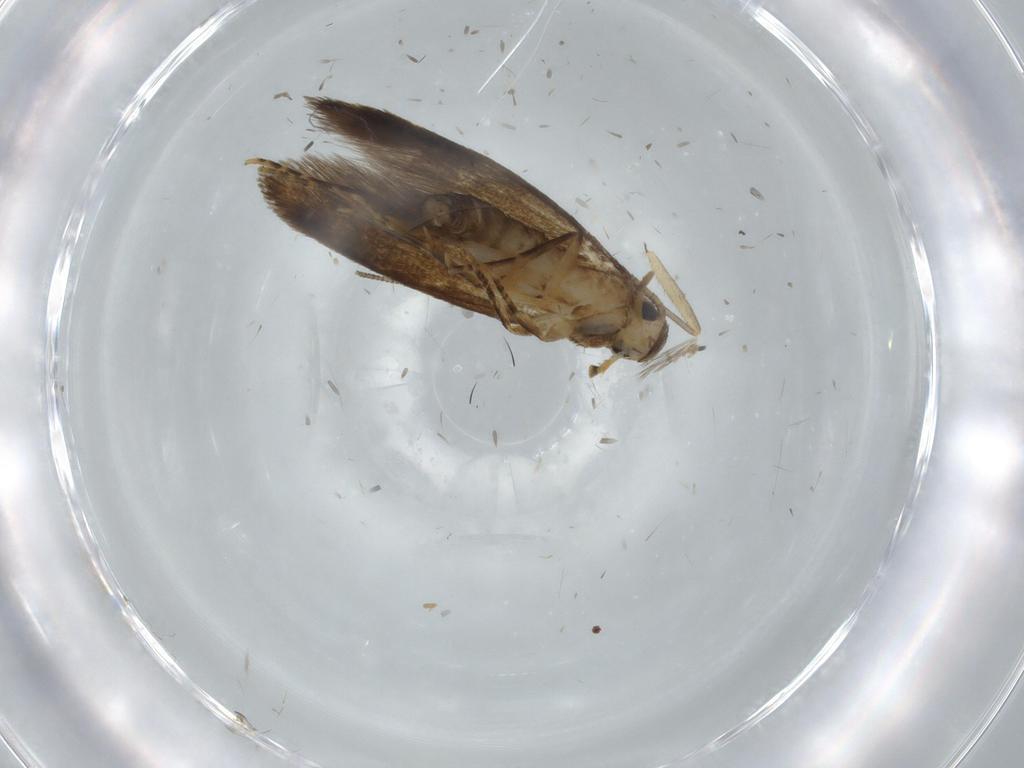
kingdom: Animalia
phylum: Arthropoda
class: Insecta
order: Lepidoptera
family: Tineidae
